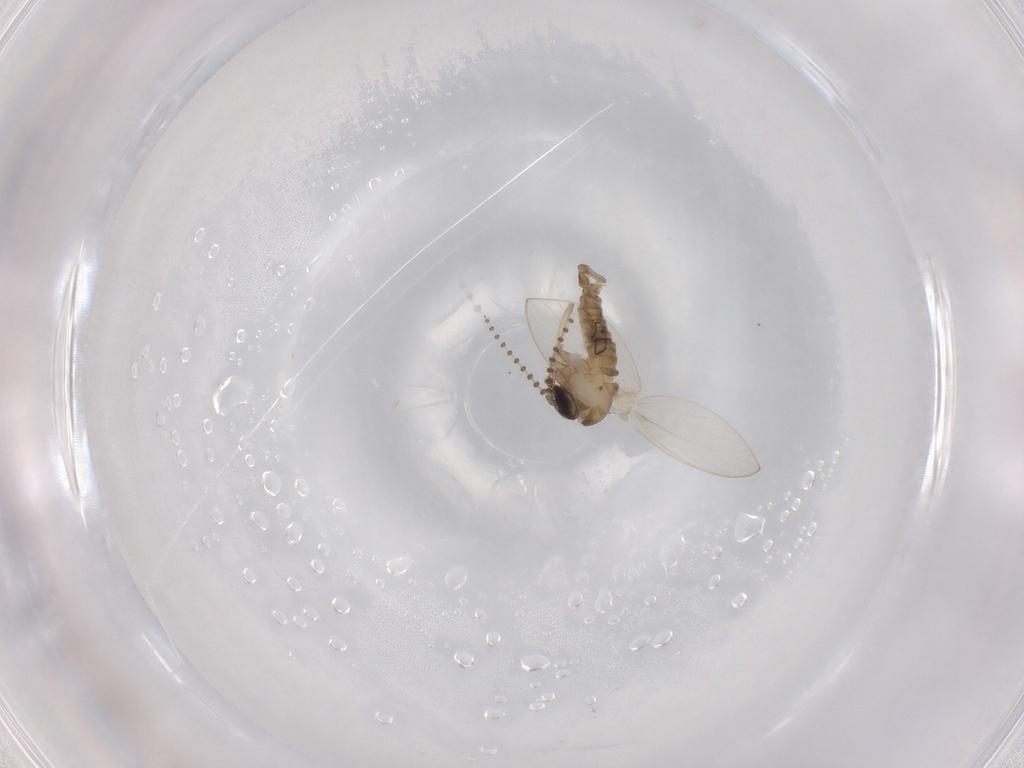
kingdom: Animalia
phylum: Arthropoda
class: Insecta
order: Diptera
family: Psychodidae
